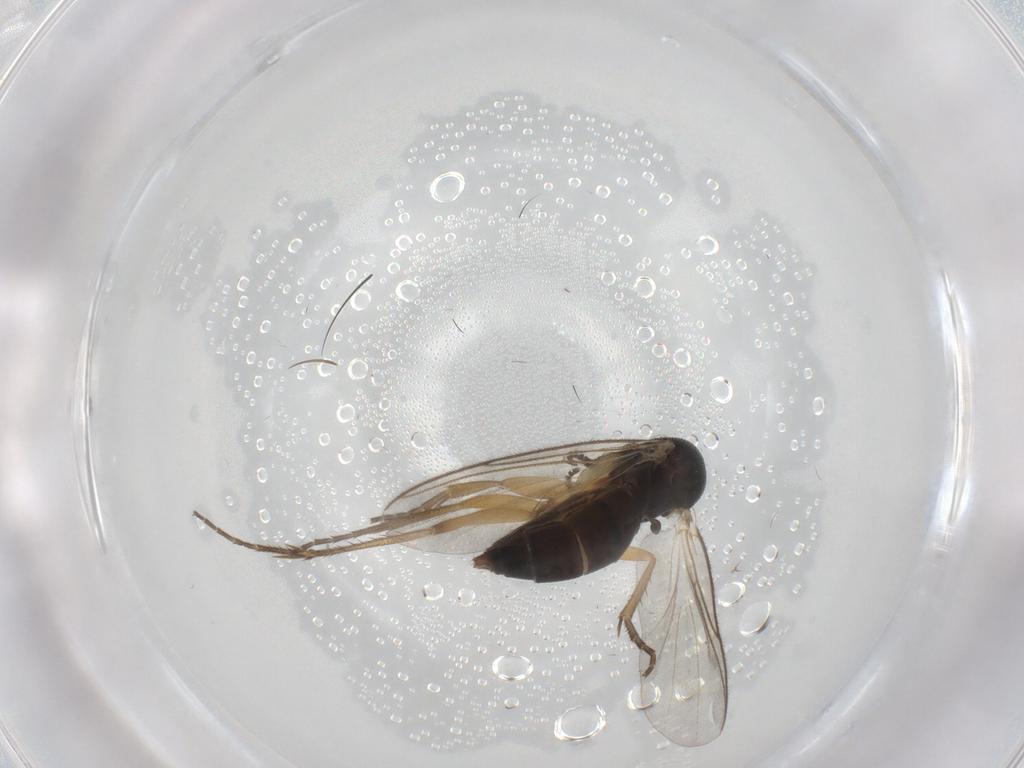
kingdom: Animalia
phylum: Arthropoda
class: Insecta
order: Diptera
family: Mycetophilidae
